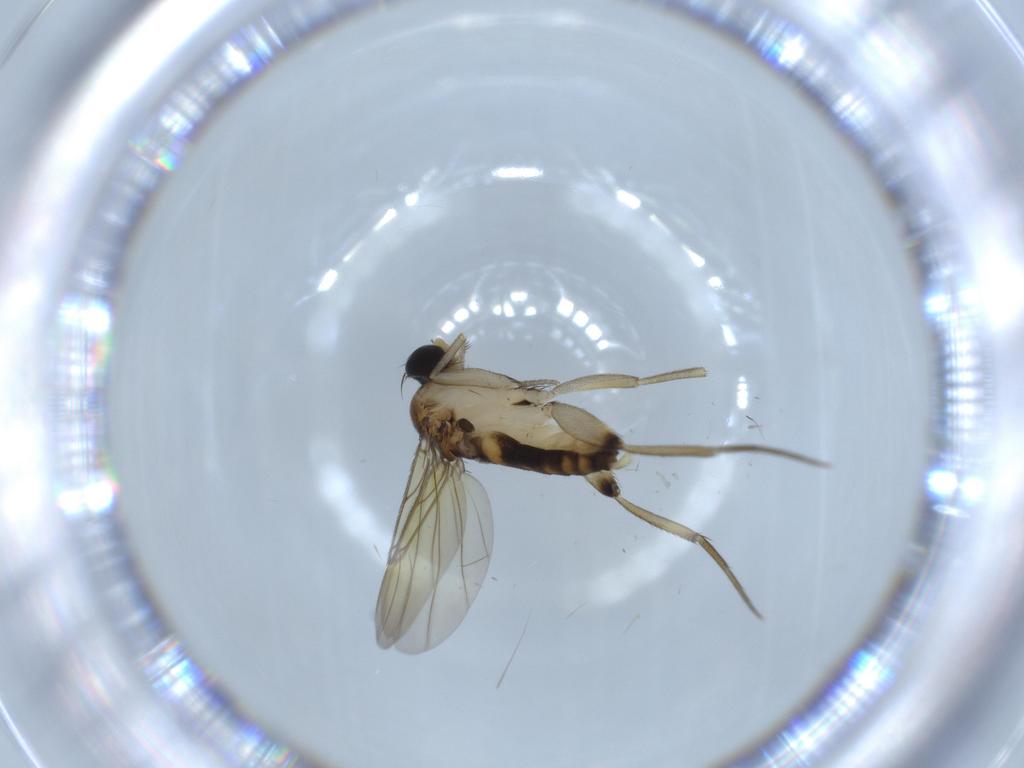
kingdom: Animalia
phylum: Arthropoda
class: Insecta
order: Diptera
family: Phoridae
